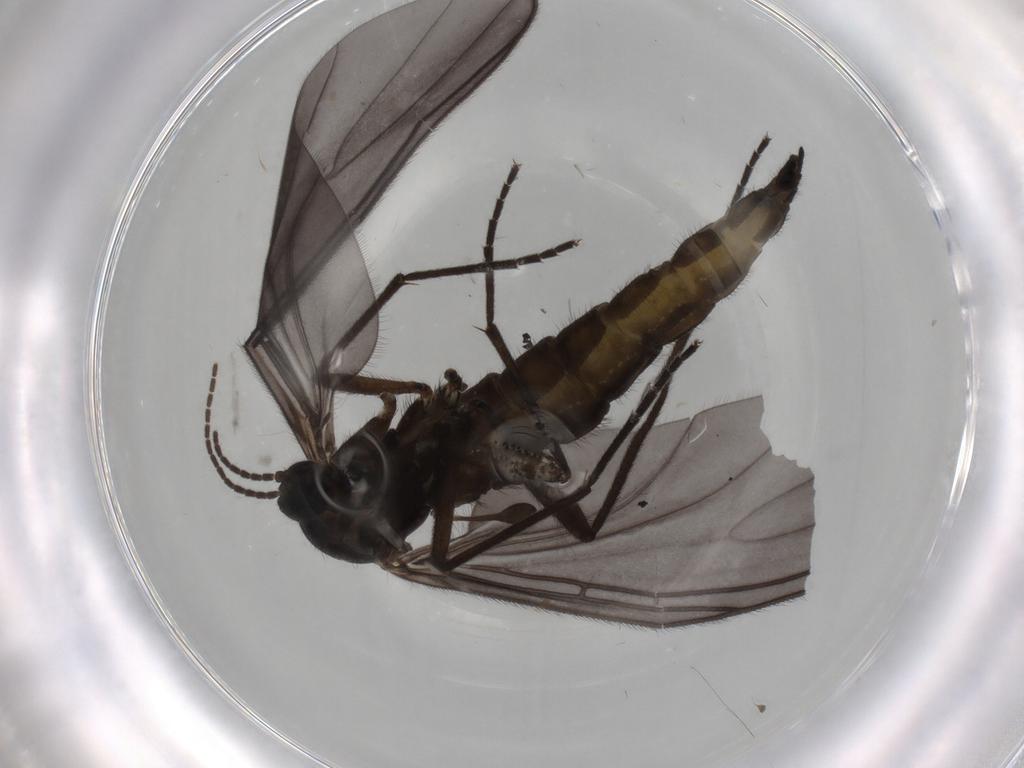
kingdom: Animalia
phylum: Arthropoda
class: Insecta
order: Diptera
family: Sciaridae
